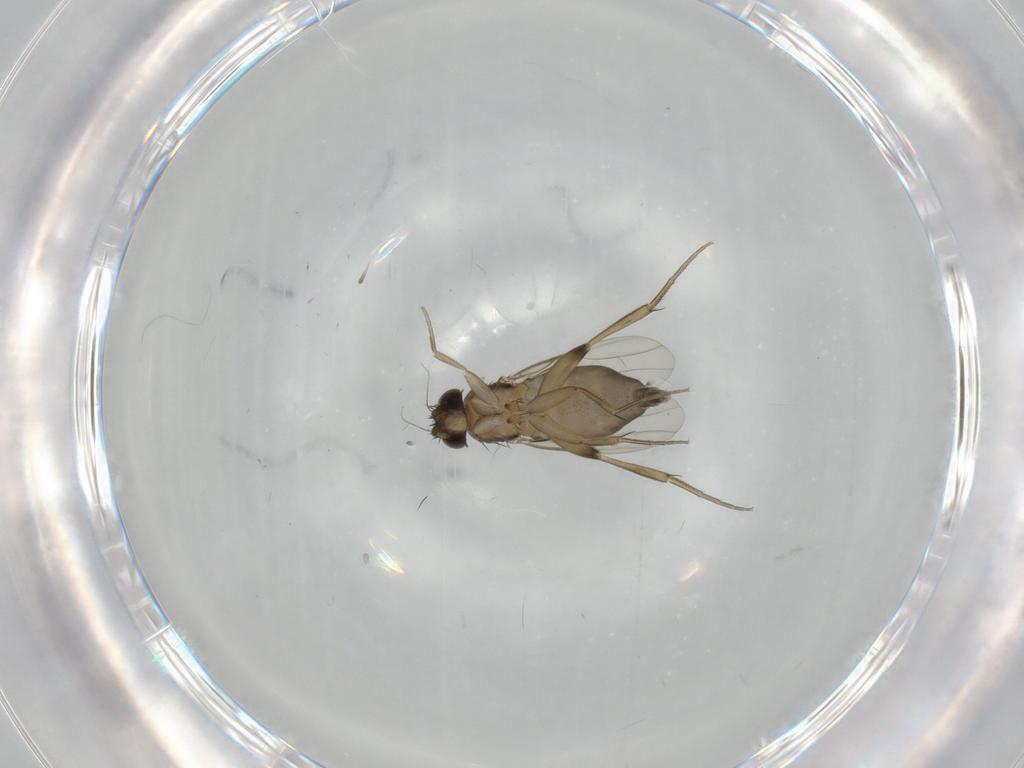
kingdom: Animalia
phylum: Arthropoda
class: Insecta
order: Diptera
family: Phoridae
